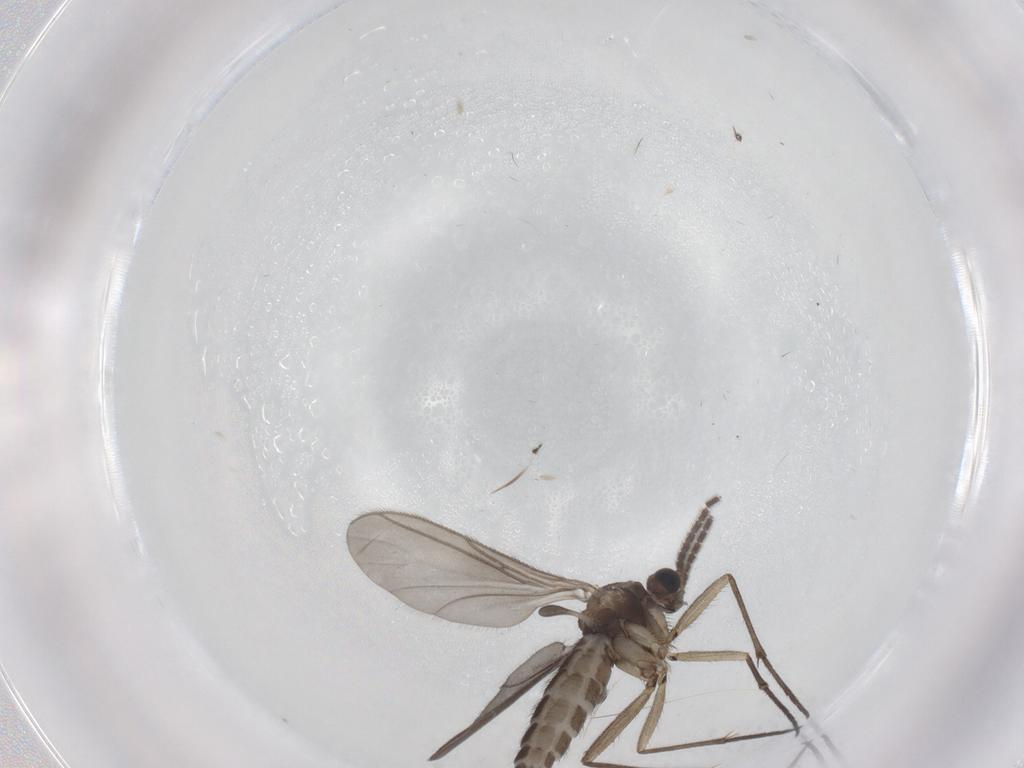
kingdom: Animalia
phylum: Arthropoda
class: Insecta
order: Diptera
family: Sciaridae
